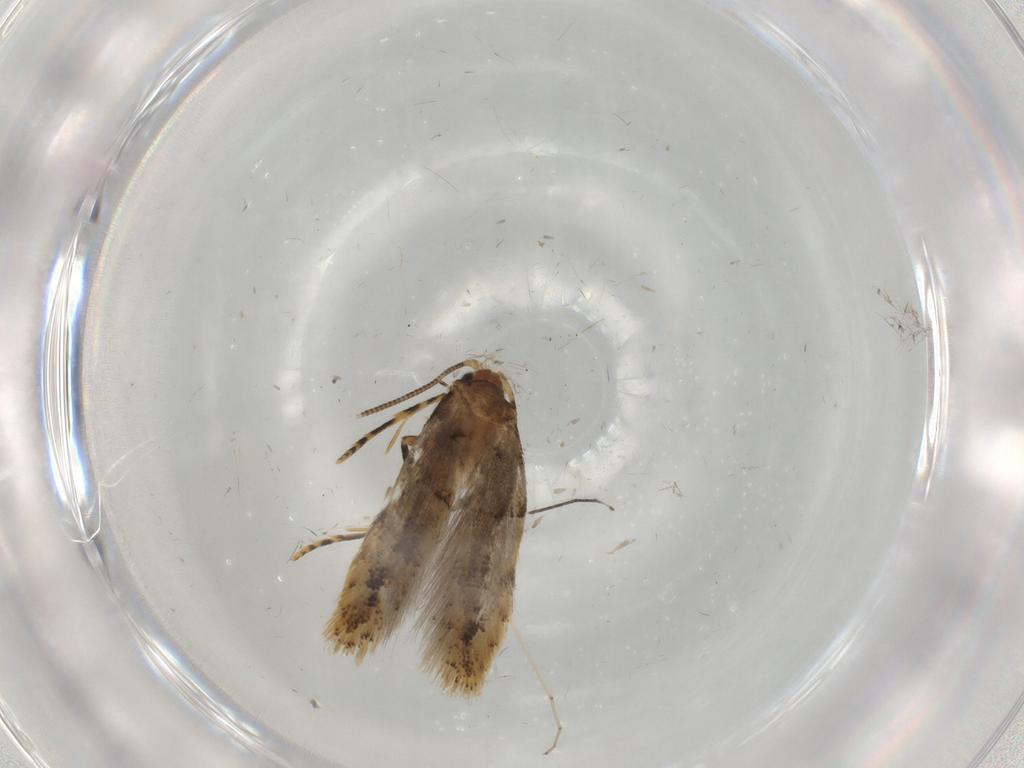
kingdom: Animalia
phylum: Arthropoda
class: Insecta
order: Lepidoptera
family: Tineidae
